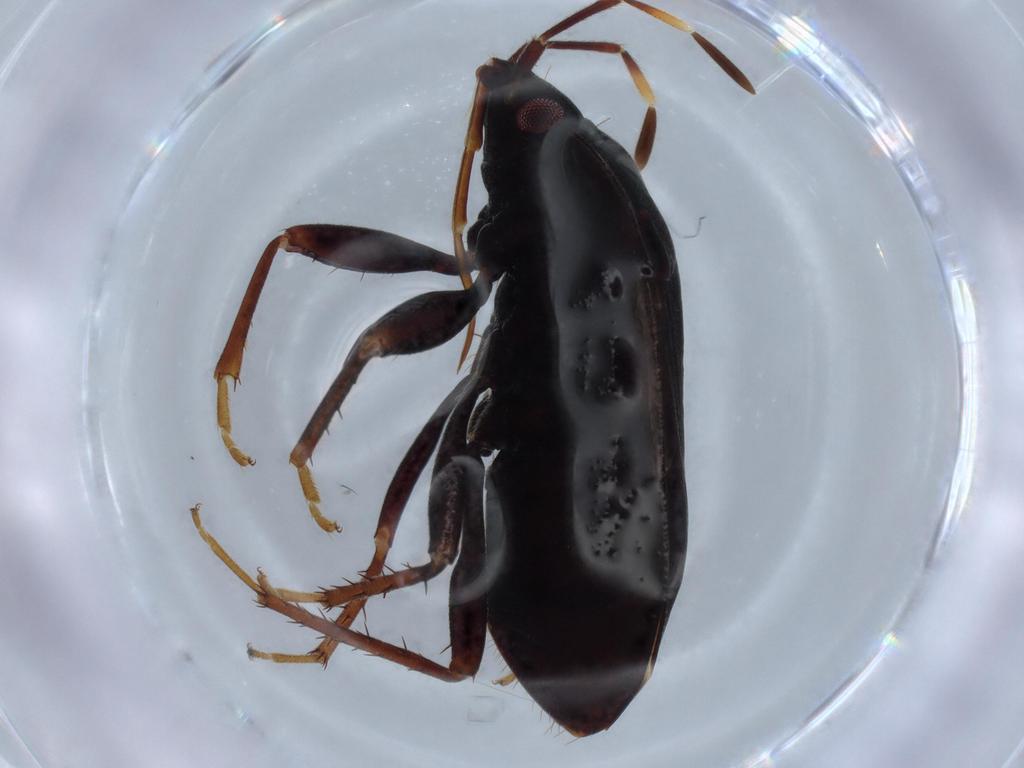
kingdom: Animalia
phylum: Arthropoda
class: Insecta
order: Hemiptera
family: Rhyparochromidae
